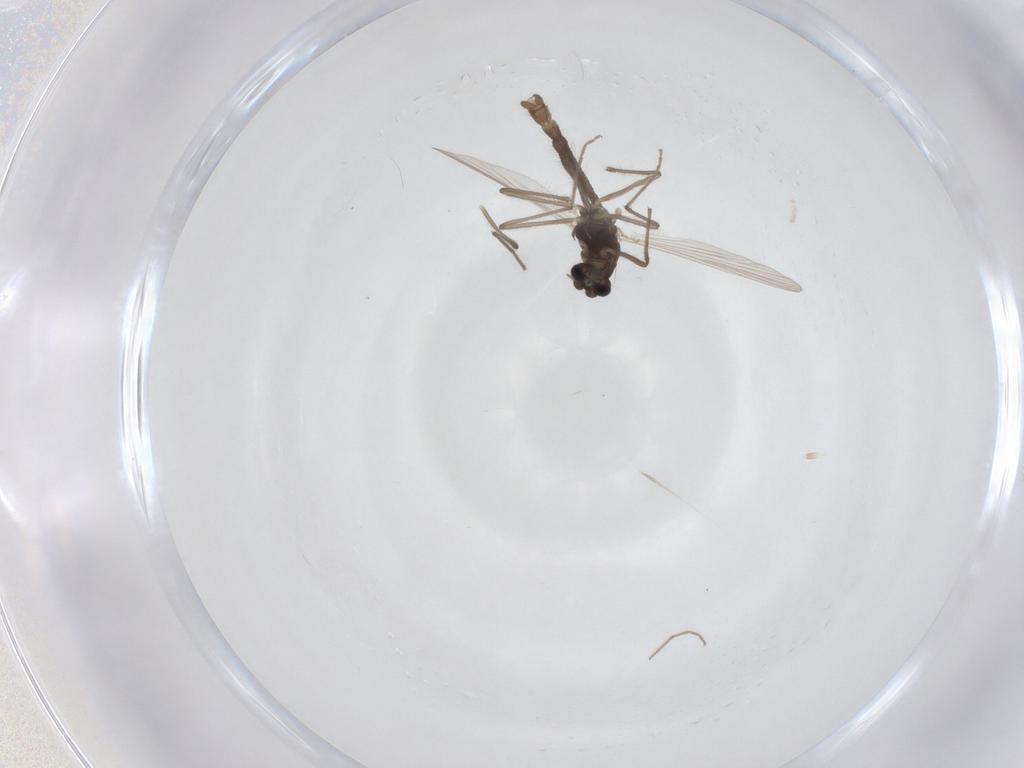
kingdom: Animalia
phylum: Arthropoda
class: Insecta
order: Diptera
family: Chironomidae
